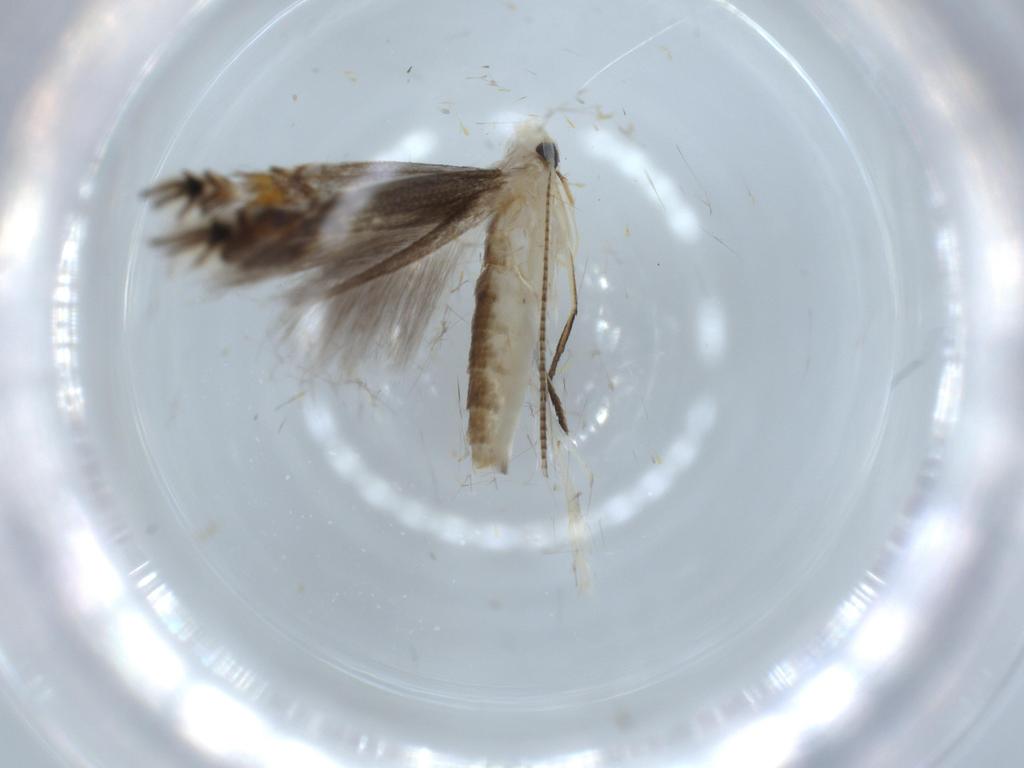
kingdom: Animalia
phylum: Arthropoda
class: Insecta
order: Lepidoptera
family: Gracillariidae
